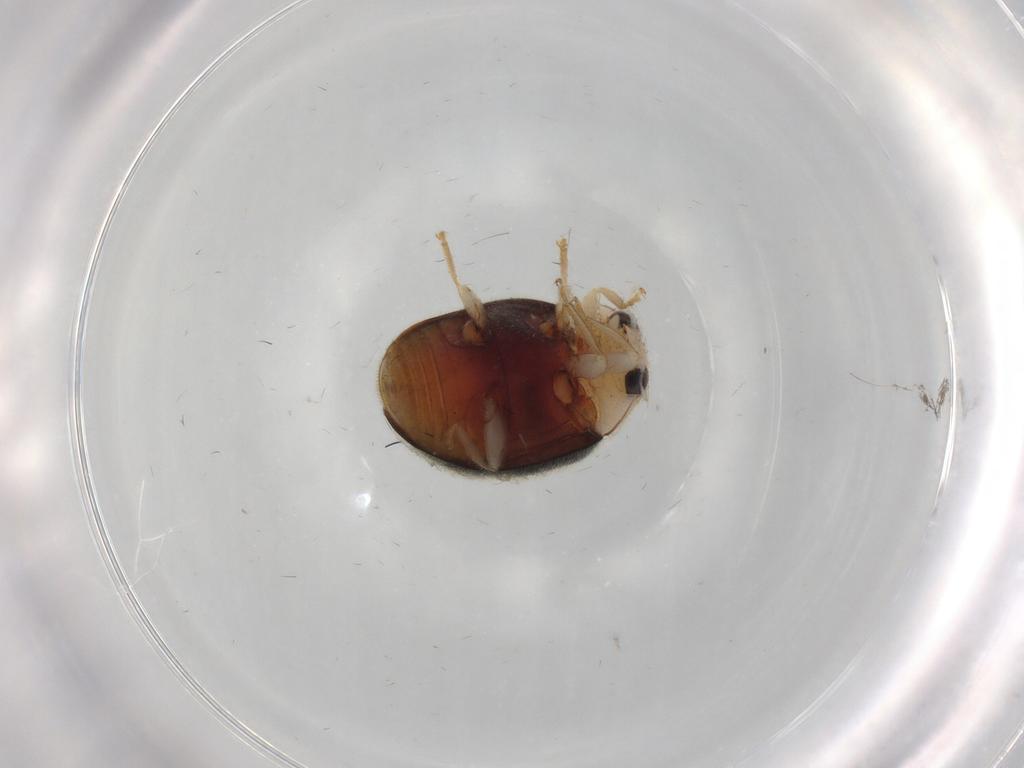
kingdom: Animalia
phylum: Arthropoda
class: Insecta
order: Coleoptera
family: Coccinellidae
